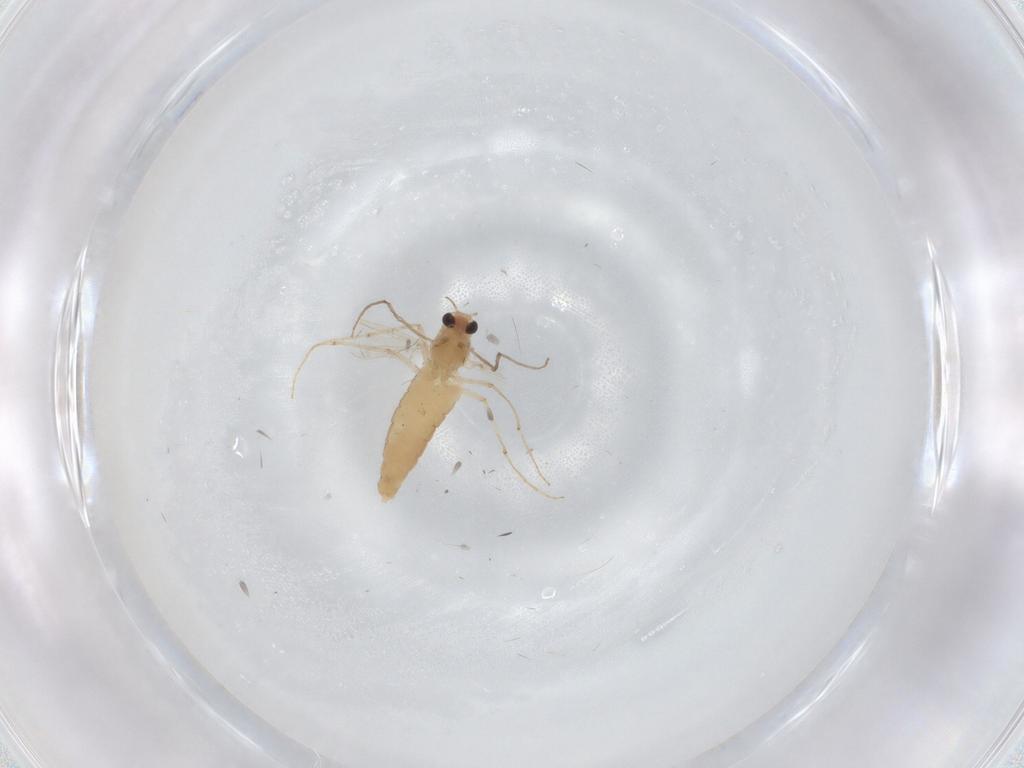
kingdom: Animalia
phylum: Arthropoda
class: Insecta
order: Diptera
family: Chironomidae
